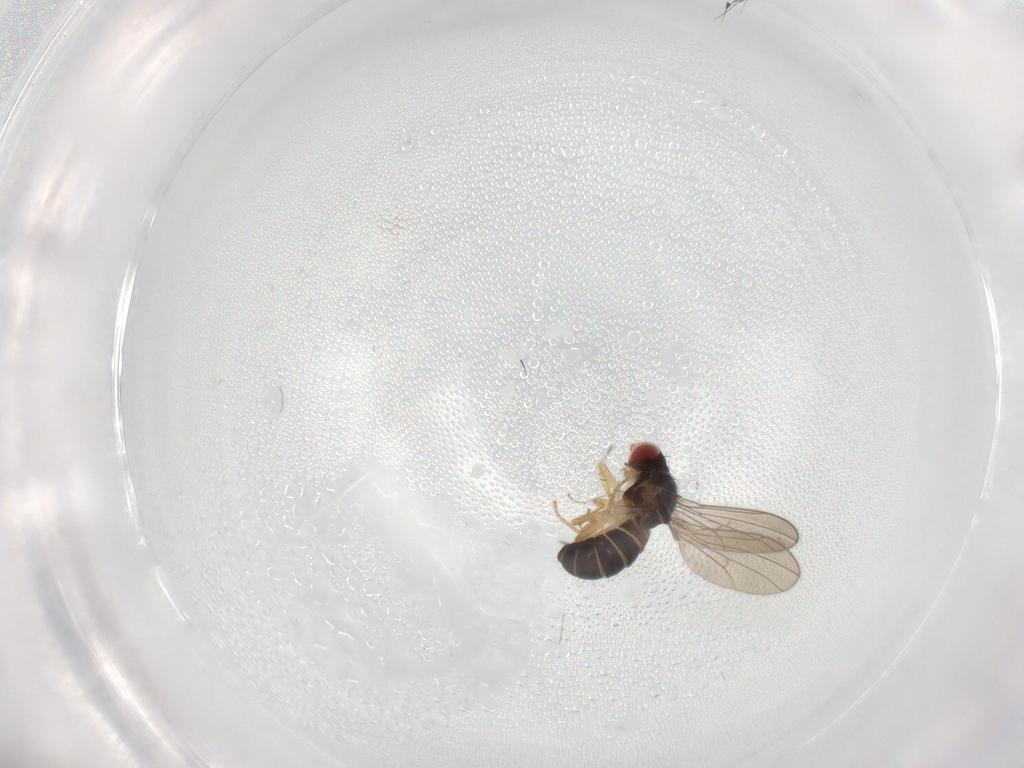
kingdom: Animalia
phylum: Arthropoda
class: Insecta
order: Diptera
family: Drosophilidae
